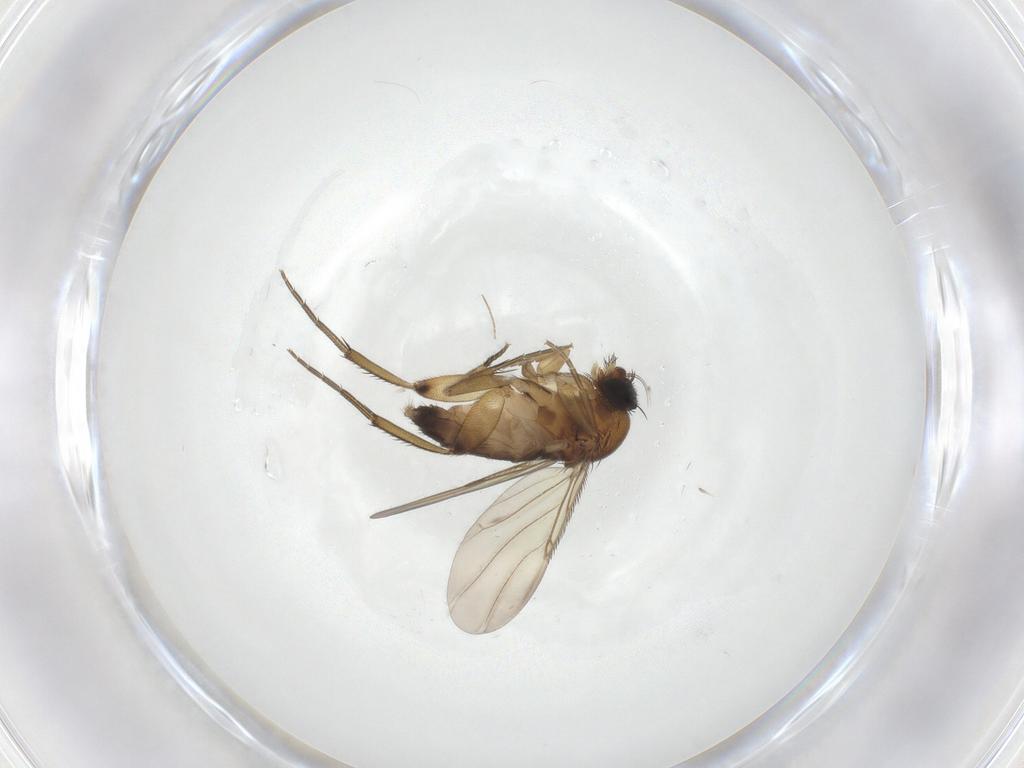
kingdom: Animalia
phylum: Arthropoda
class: Insecta
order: Diptera
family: Phoridae
